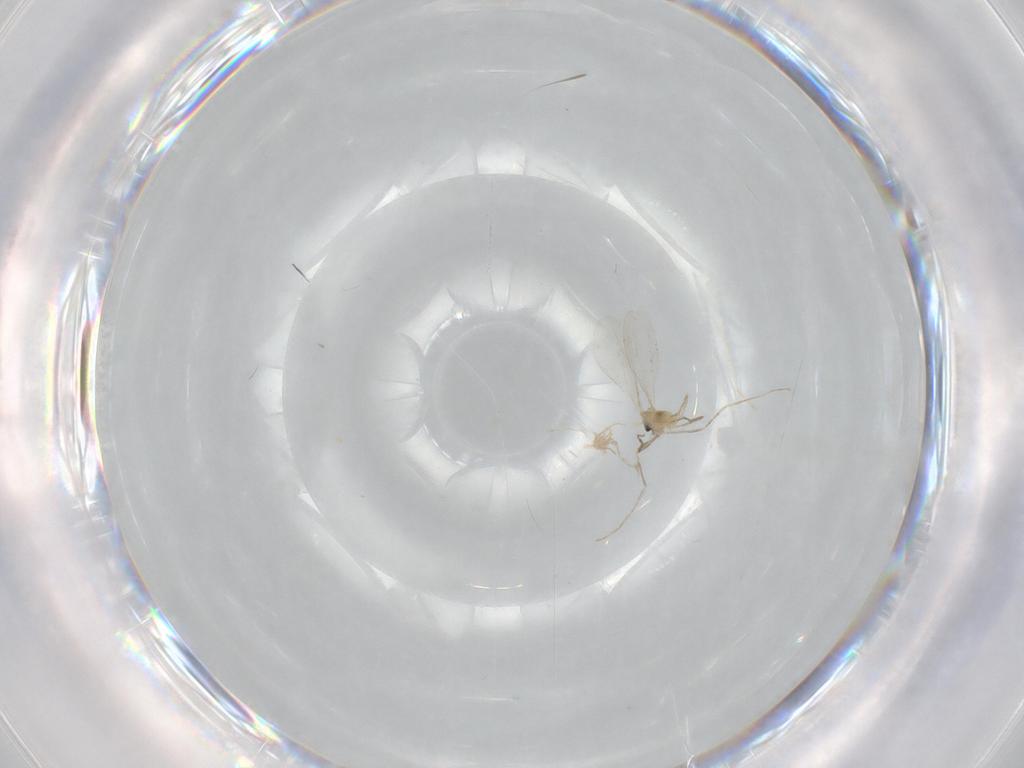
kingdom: Animalia
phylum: Arthropoda
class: Insecta
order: Diptera
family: Cecidomyiidae
